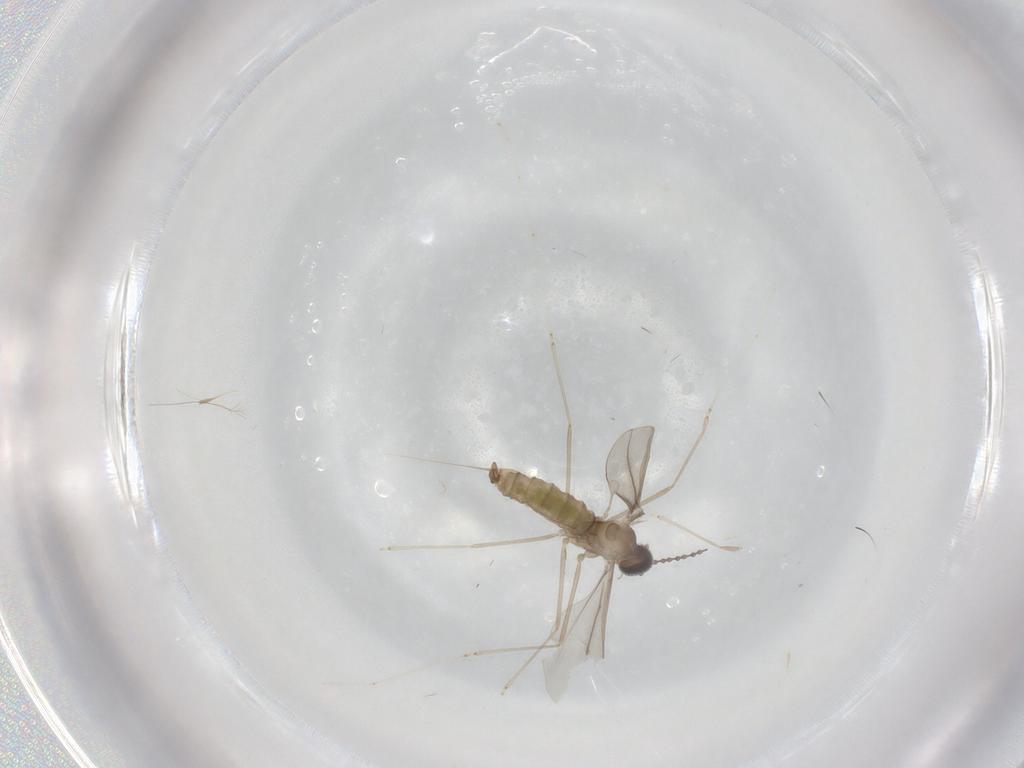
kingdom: Animalia
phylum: Arthropoda
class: Insecta
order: Diptera
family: Cecidomyiidae
